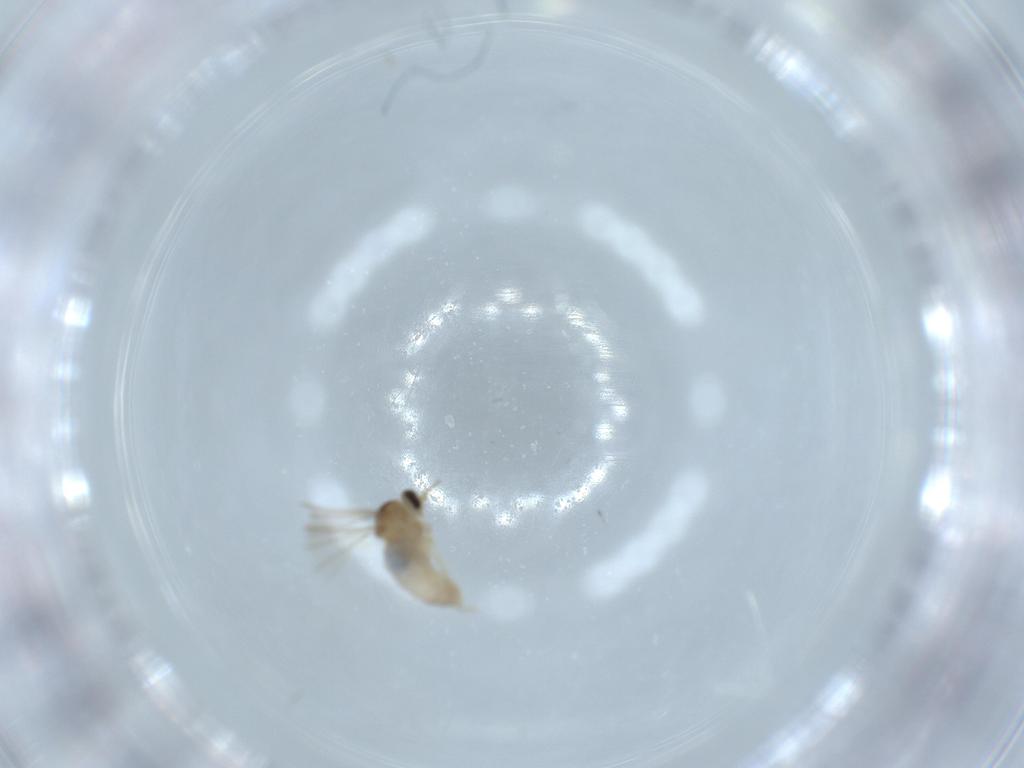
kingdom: Animalia
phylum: Arthropoda
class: Insecta
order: Diptera
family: Cecidomyiidae
